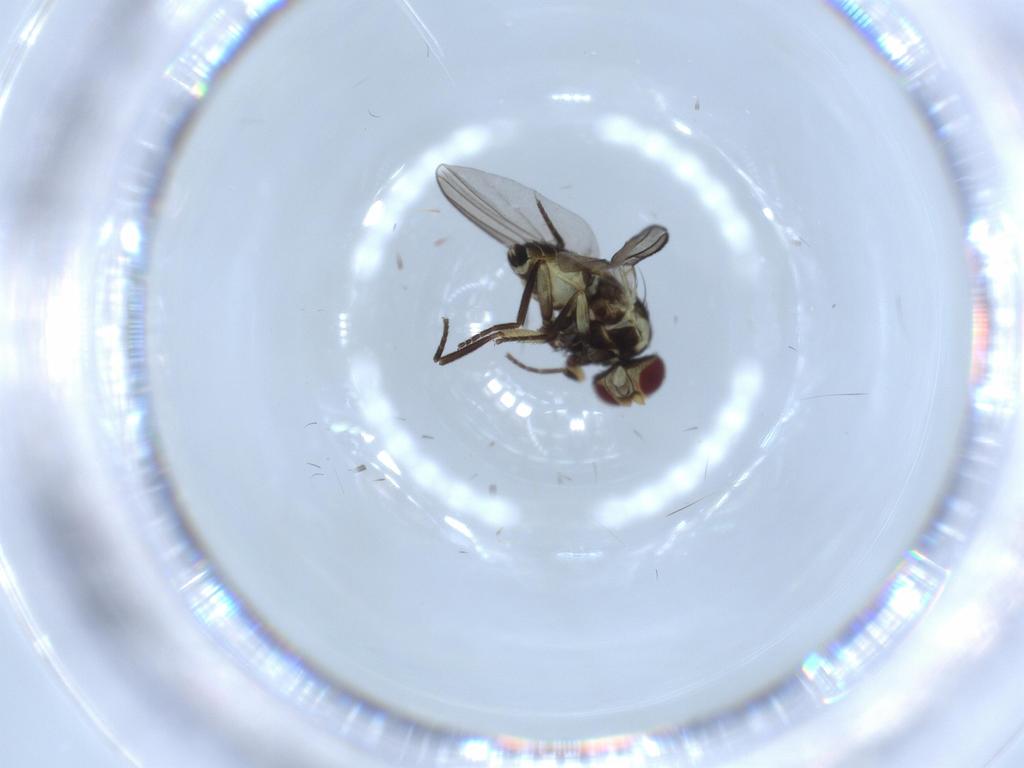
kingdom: Animalia
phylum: Arthropoda
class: Insecta
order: Diptera
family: Agromyzidae
